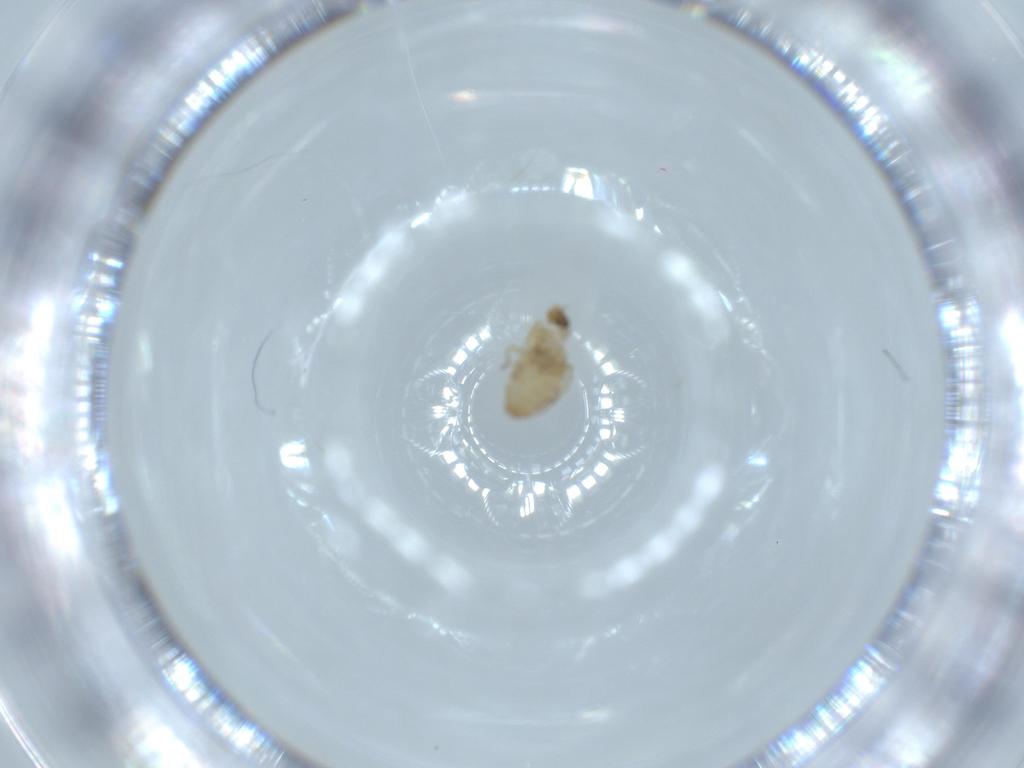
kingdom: Animalia
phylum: Arthropoda
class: Insecta
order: Diptera
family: Phoridae
